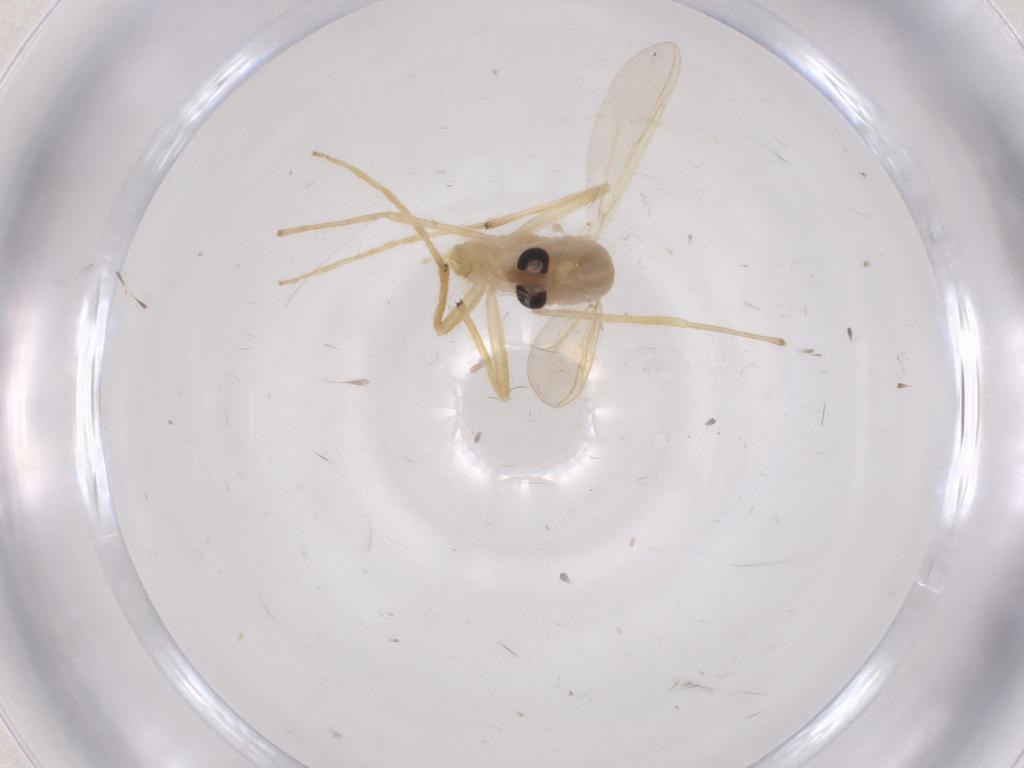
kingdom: Animalia
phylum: Arthropoda
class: Insecta
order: Diptera
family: Chironomidae
